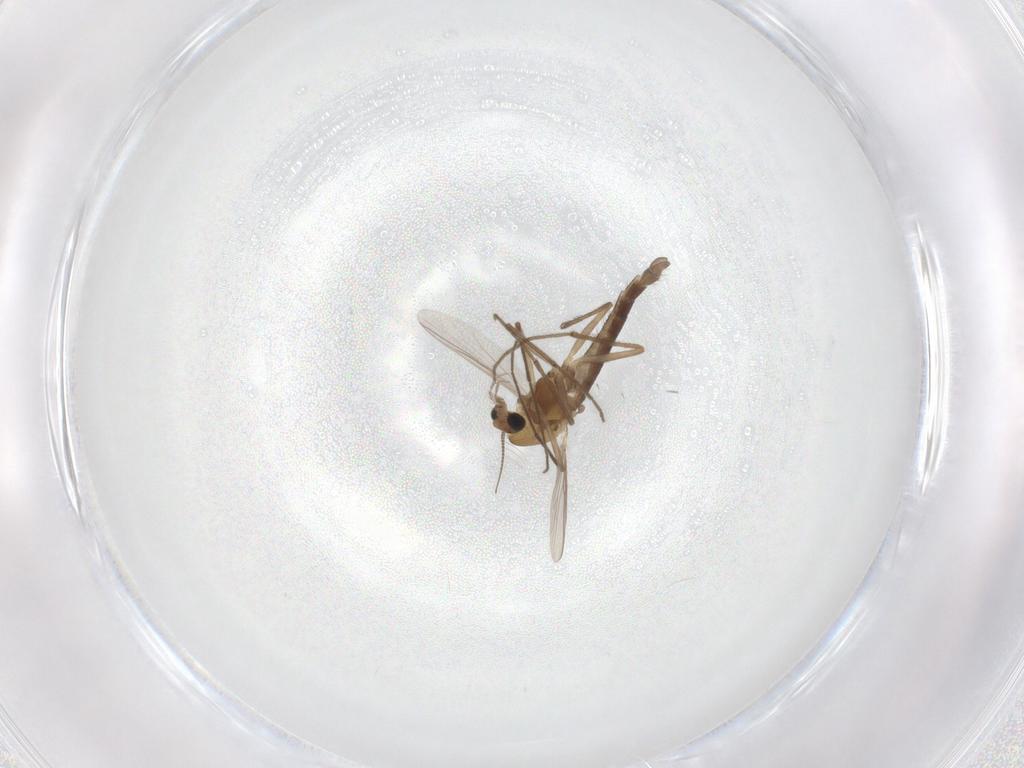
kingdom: Animalia
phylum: Arthropoda
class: Insecta
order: Diptera
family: Chironomidae
